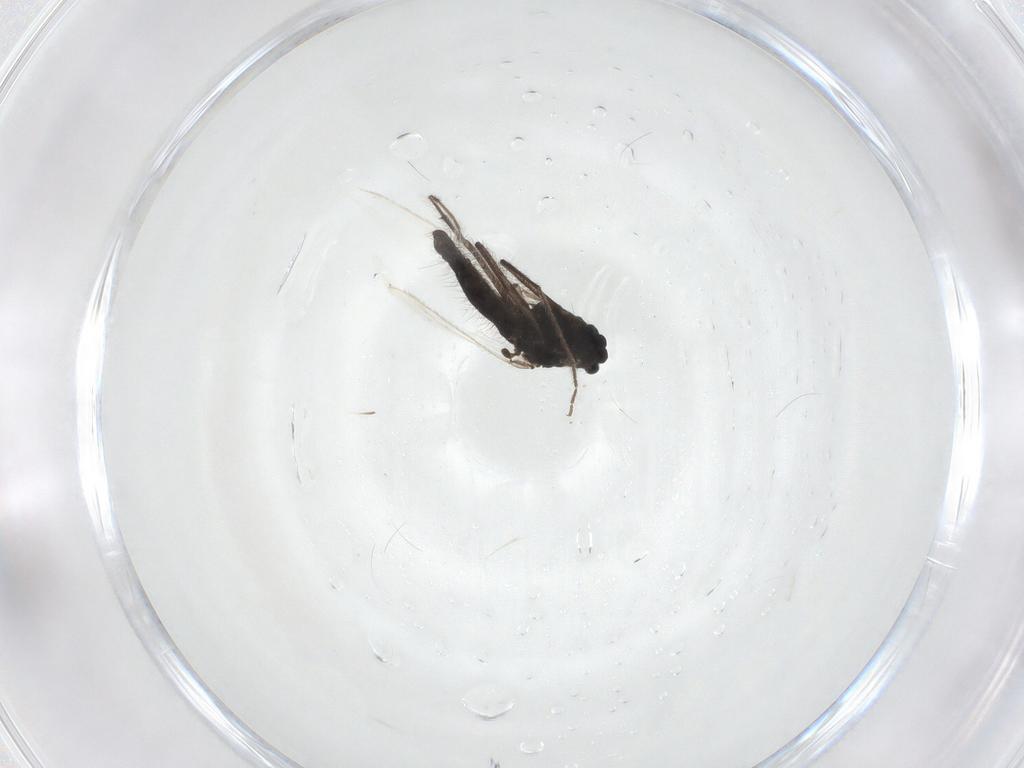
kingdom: Animalia
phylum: Arthropoda
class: Insecta
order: Diptera
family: Chironomidae
